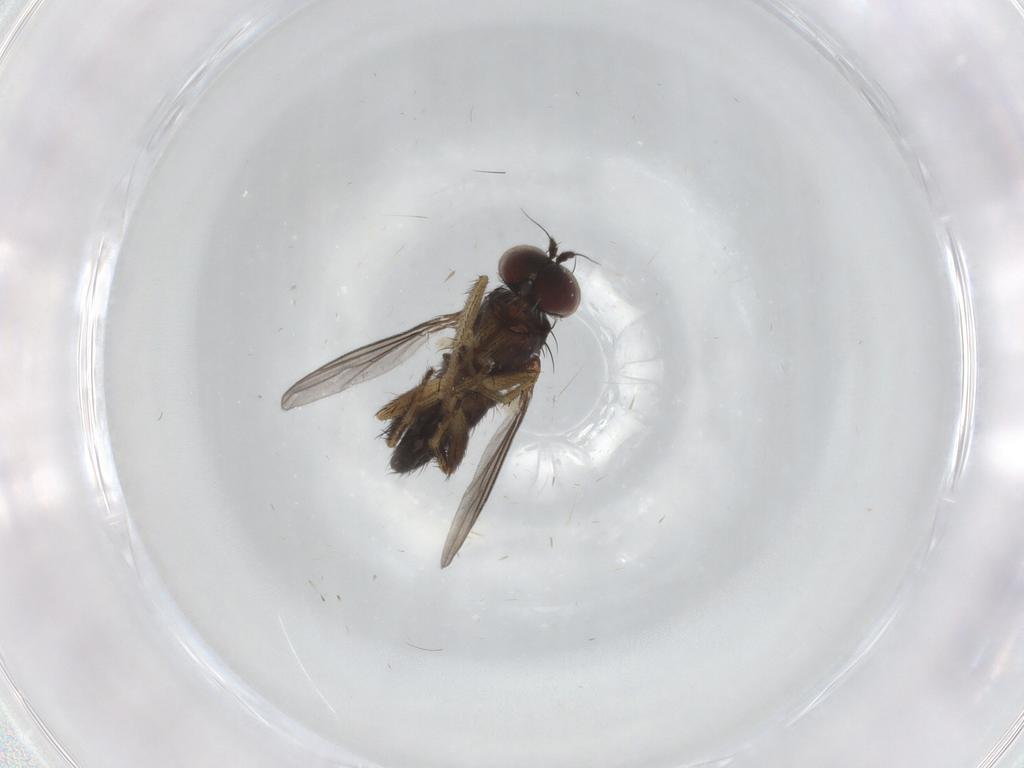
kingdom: Animalia
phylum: Arthropoda
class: Insecta
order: Diptera
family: Dolichopodidae
